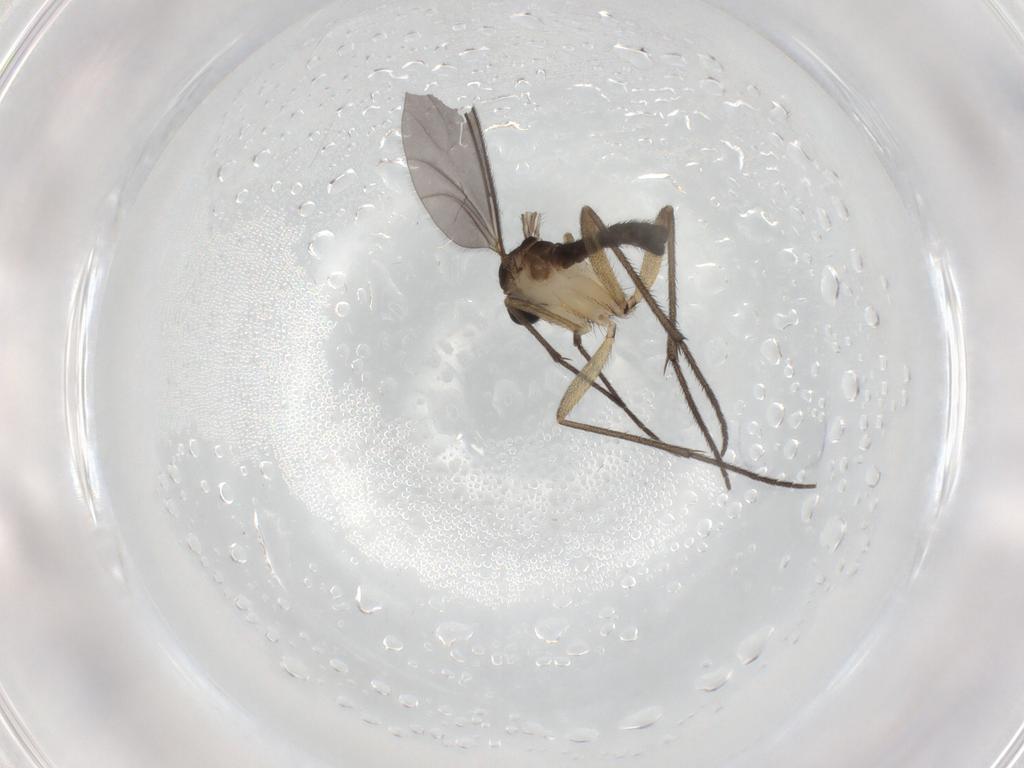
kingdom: Animalia
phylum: Arthropoda
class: Insecta
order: Diptera
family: Sciaridae
